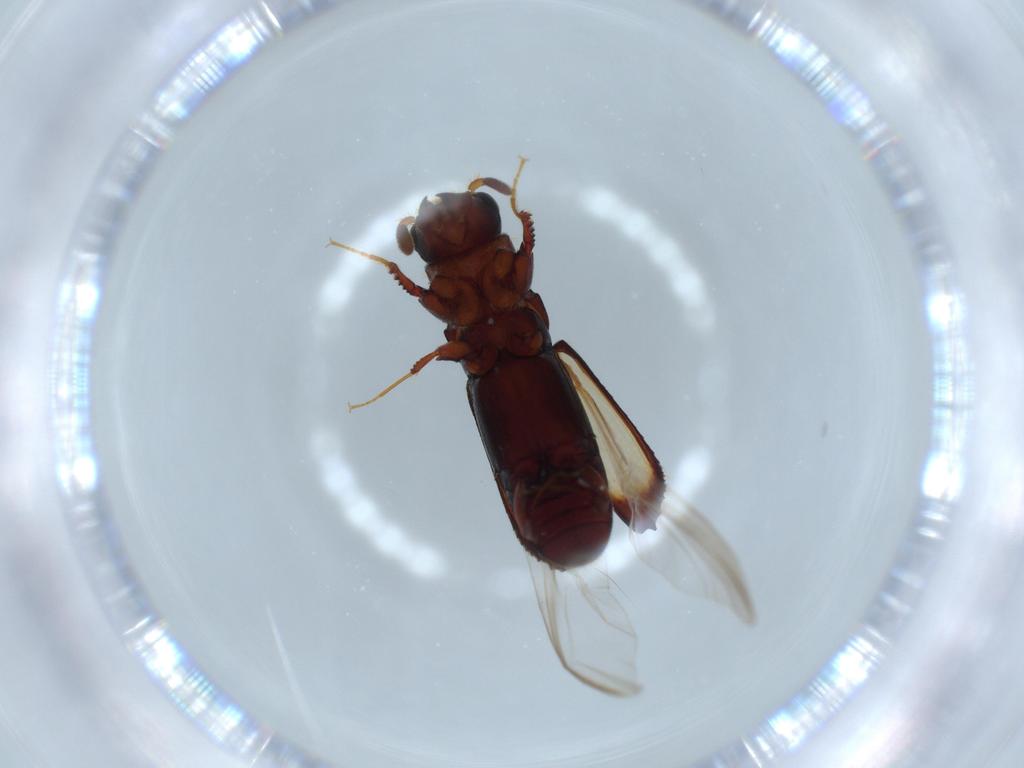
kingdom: Animalia
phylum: Arthropoda
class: Insecta
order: Coleoptera
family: Curculionidae
